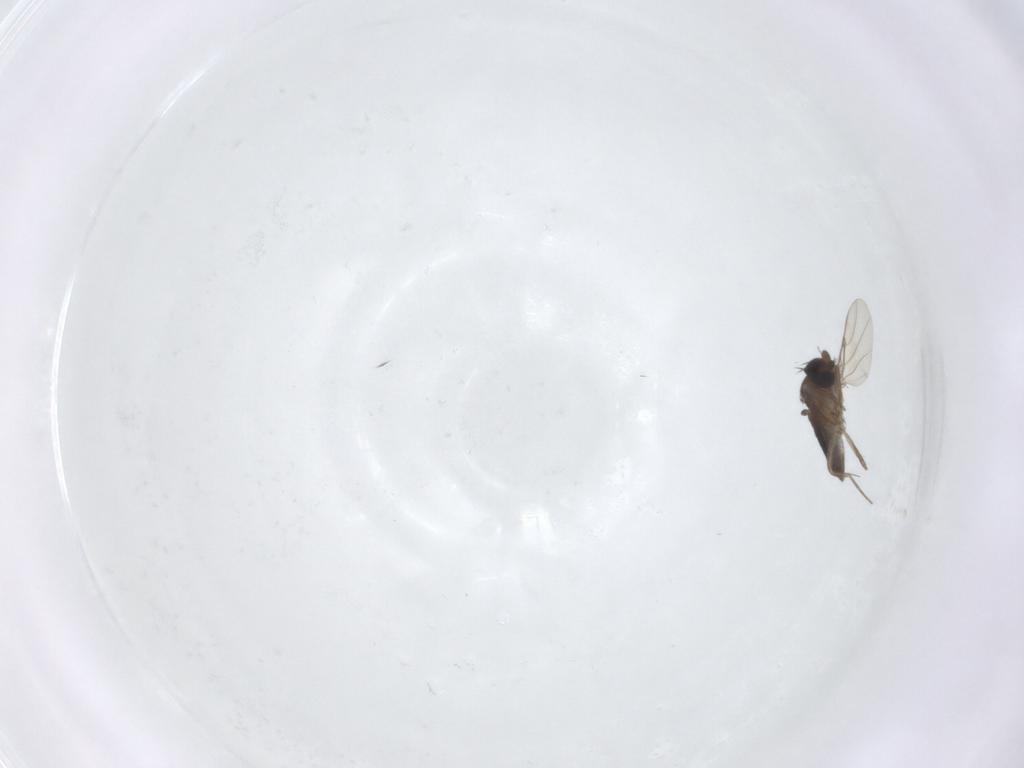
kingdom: Animalia
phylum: Arthropoda
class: Insecta
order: Diptera
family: Phoridae
